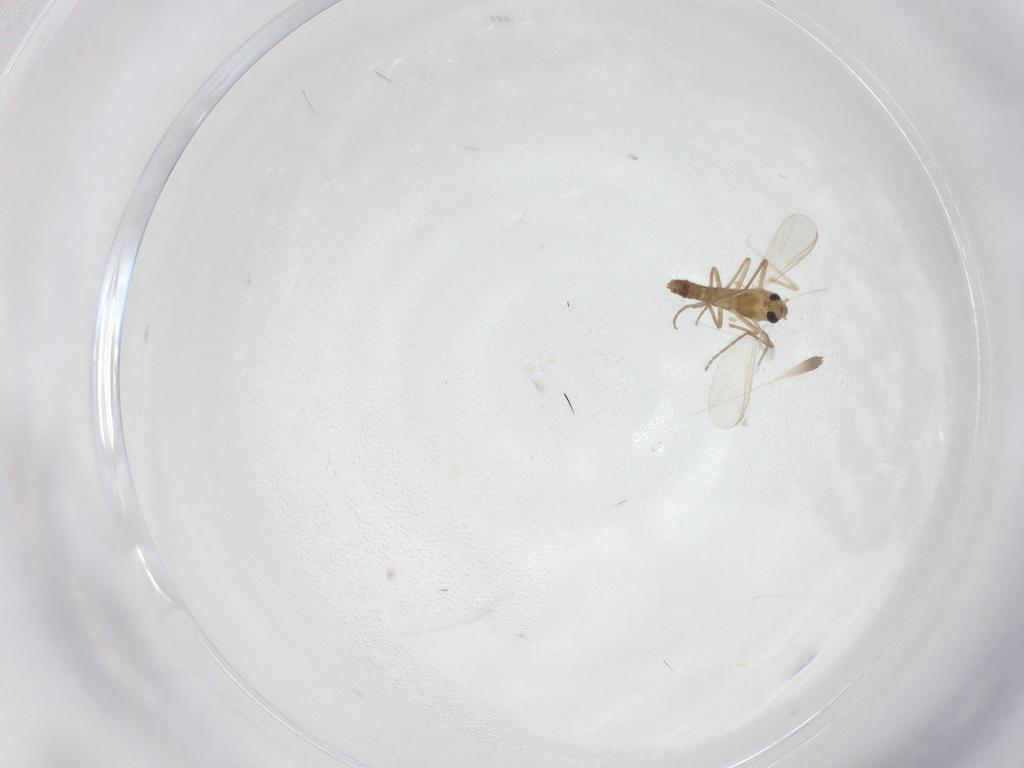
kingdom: Animalia
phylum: Arthropoda
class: Insecta
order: Diptera
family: Chironomidae
